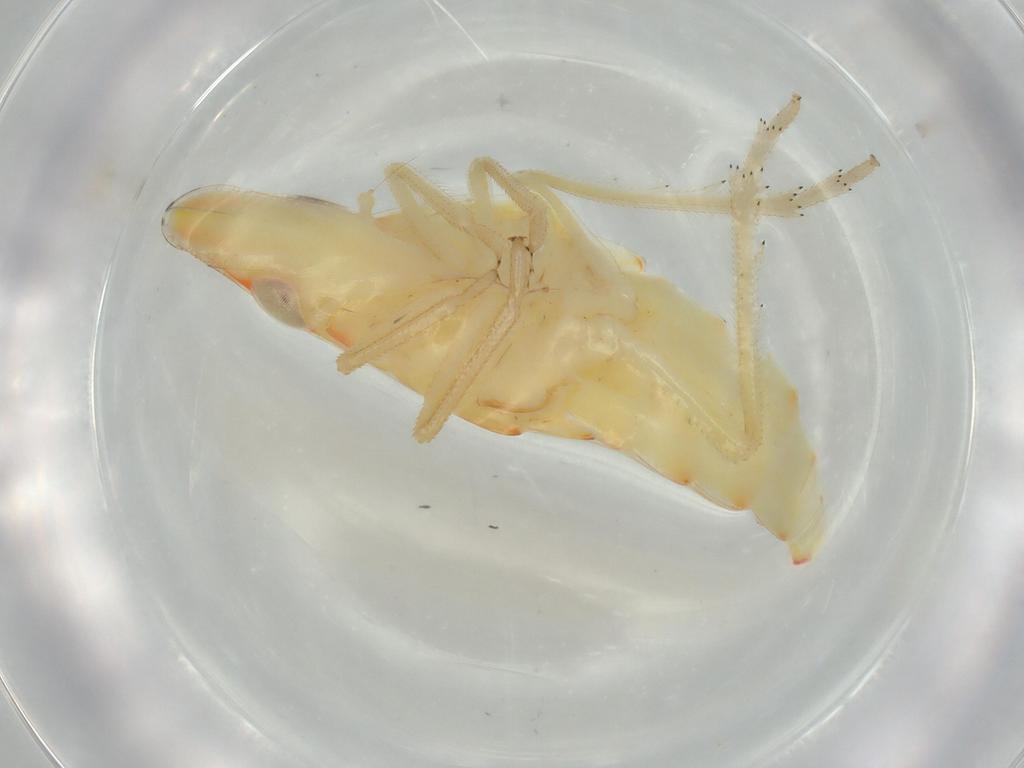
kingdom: Animalia
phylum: Arthropoda
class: Insecta
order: Hemiptera
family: Tropiduchidae
